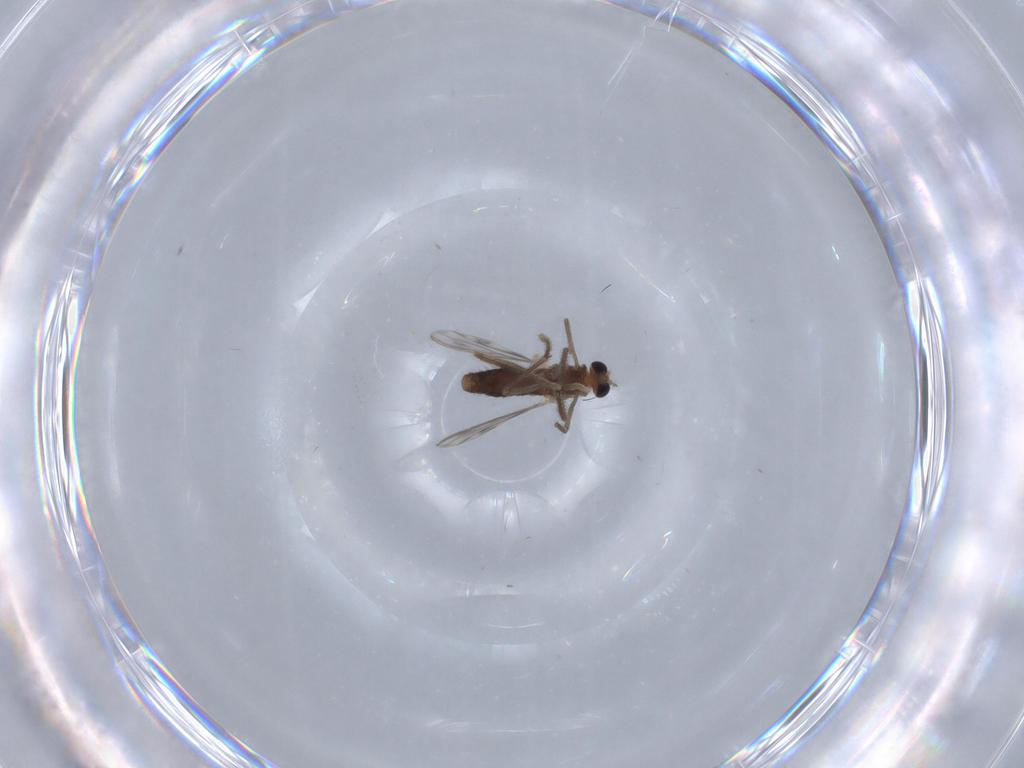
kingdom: Animalia
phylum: Arthropoda
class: Insecta
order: Diptera
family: Chironomidae
